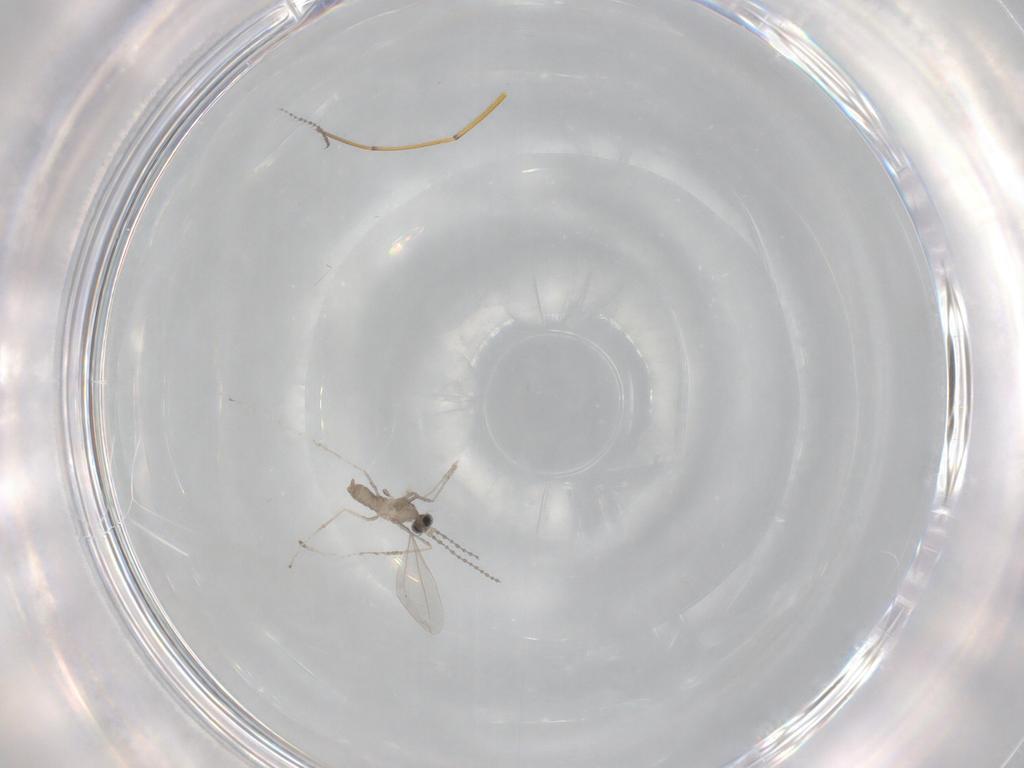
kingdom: Animalia
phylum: Arthropoda
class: Insecta
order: Diptera
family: Cecidomyiidae
